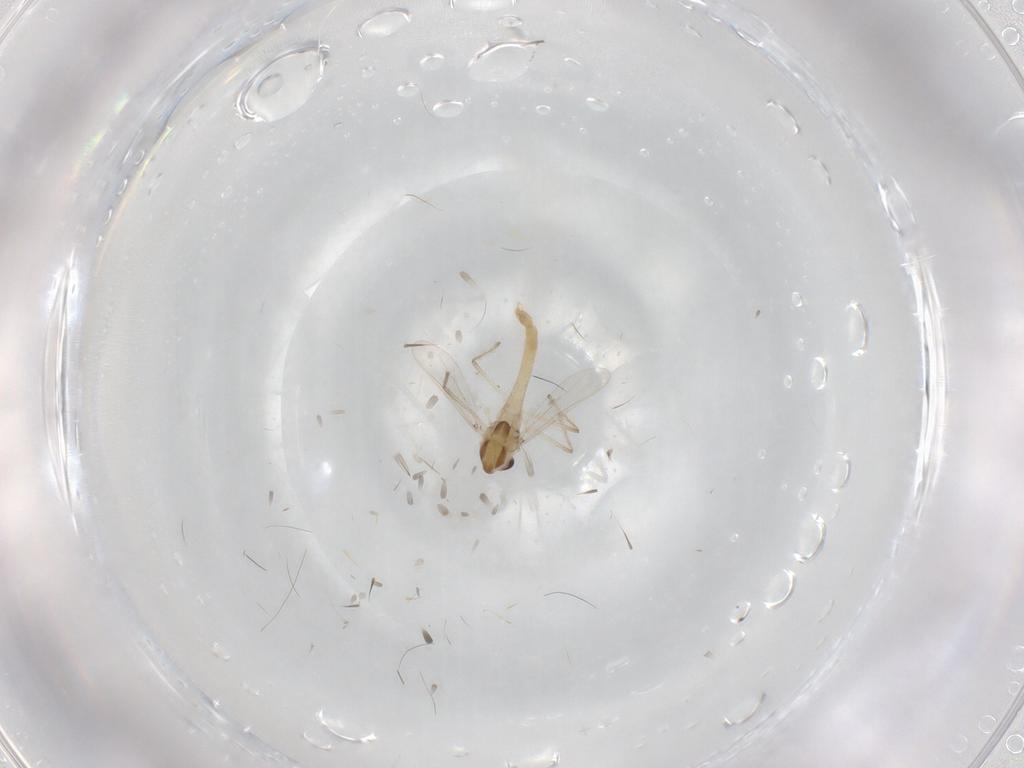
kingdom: Animalia
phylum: Arthropoda
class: Insecta
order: Diptera
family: Chironomidae
